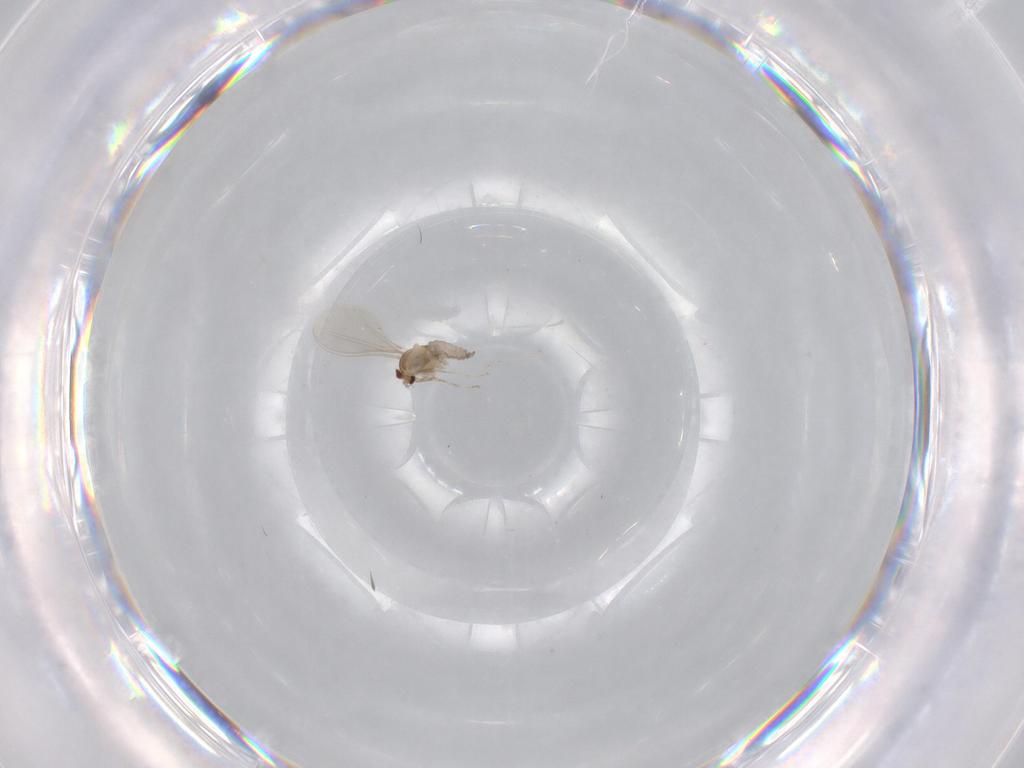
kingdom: Animalia
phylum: Arthropoda
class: Insecta
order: Diptera
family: Cecidomyiidae
